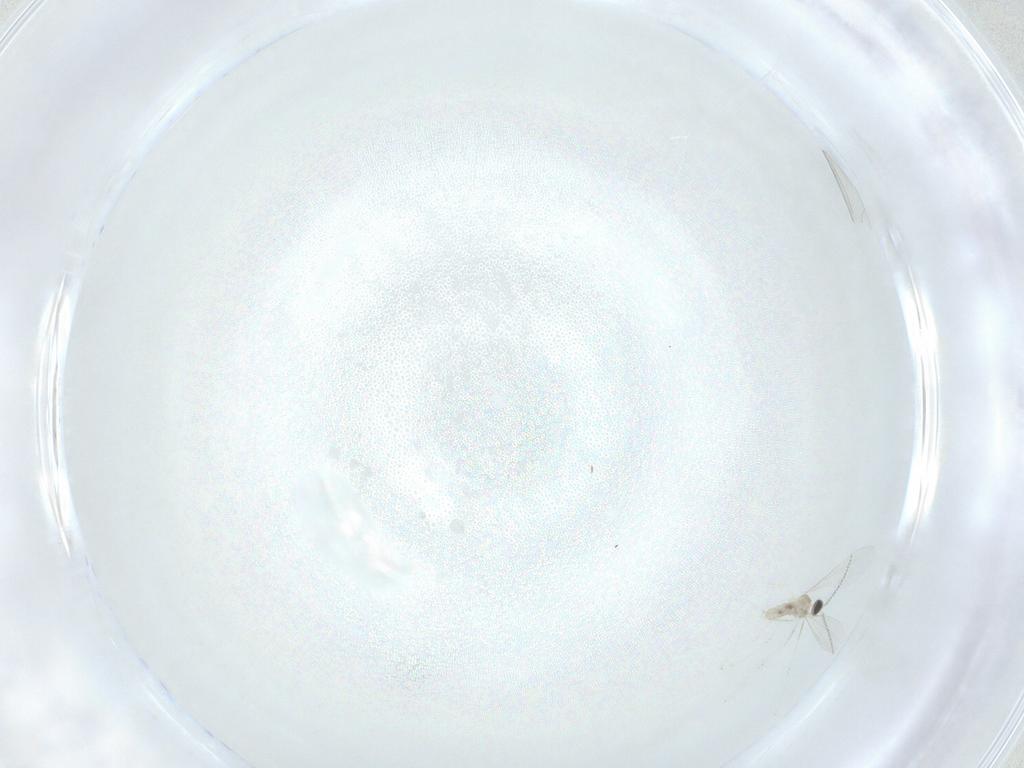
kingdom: Animalia
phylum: Arthropoda
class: Insecta
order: Diptera
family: Cecidomyiidae
